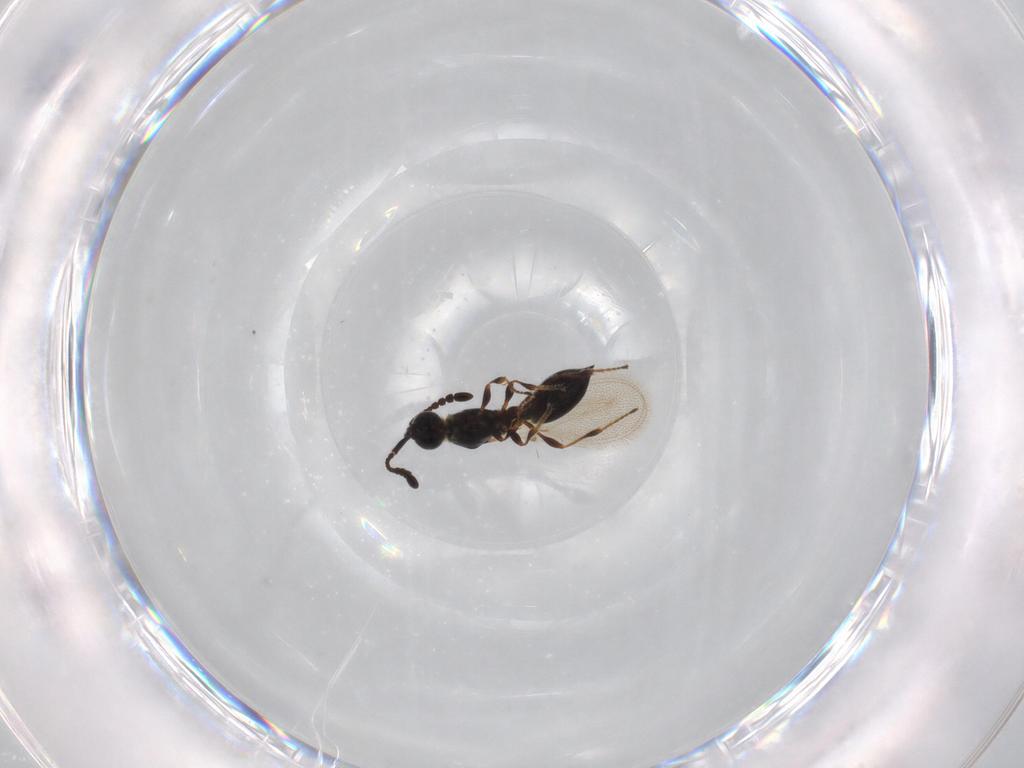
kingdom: Animalia
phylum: Arthropoda
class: Insecta
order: Hymenoptera
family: Diapriidae
